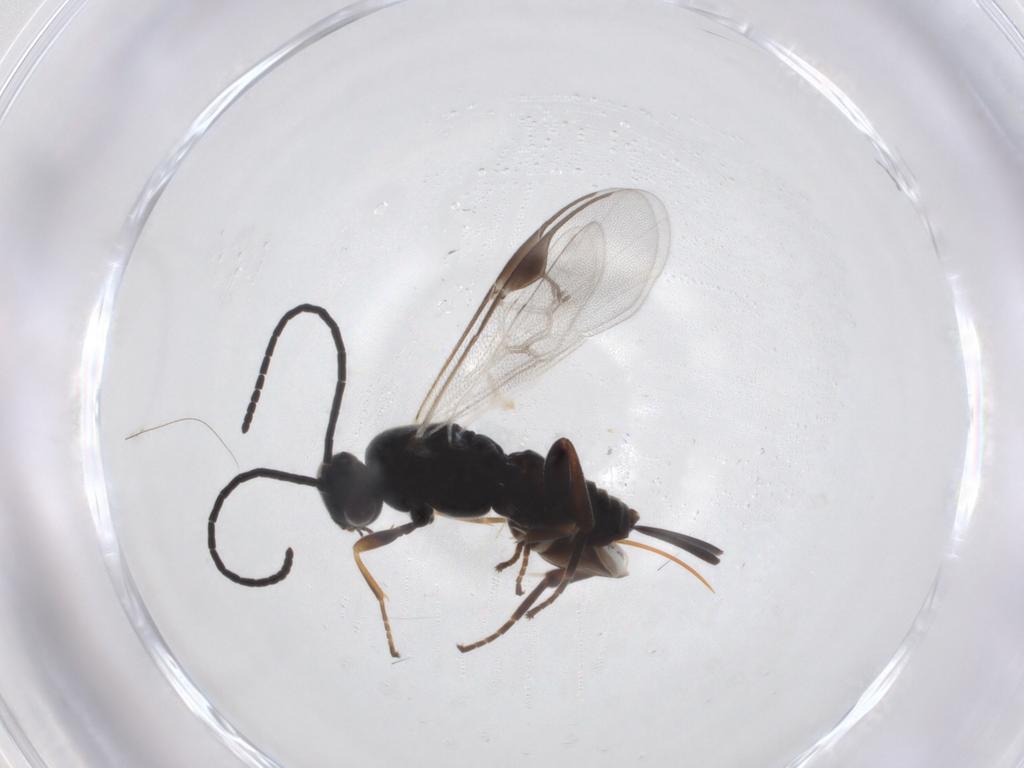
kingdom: Animalia
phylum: Arthropoda
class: Insecta
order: Hymenoptera
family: Braconidae
